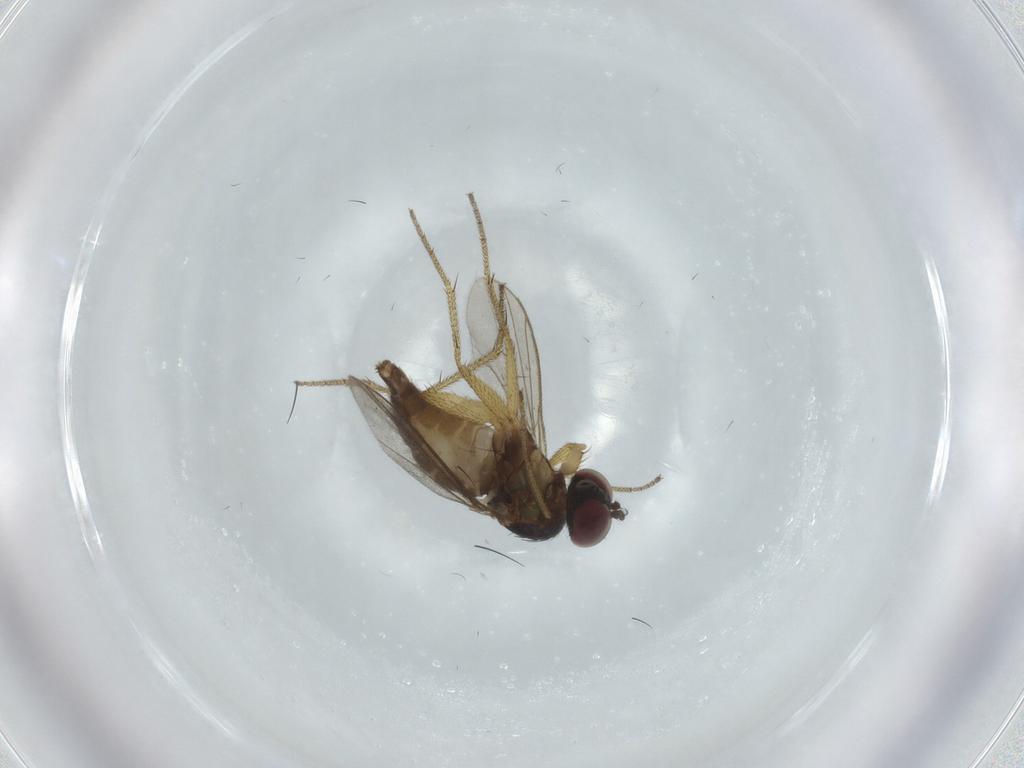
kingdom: Animalia
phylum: Arthropoda
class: Insecta
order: Diptera
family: Dolichopodidae
